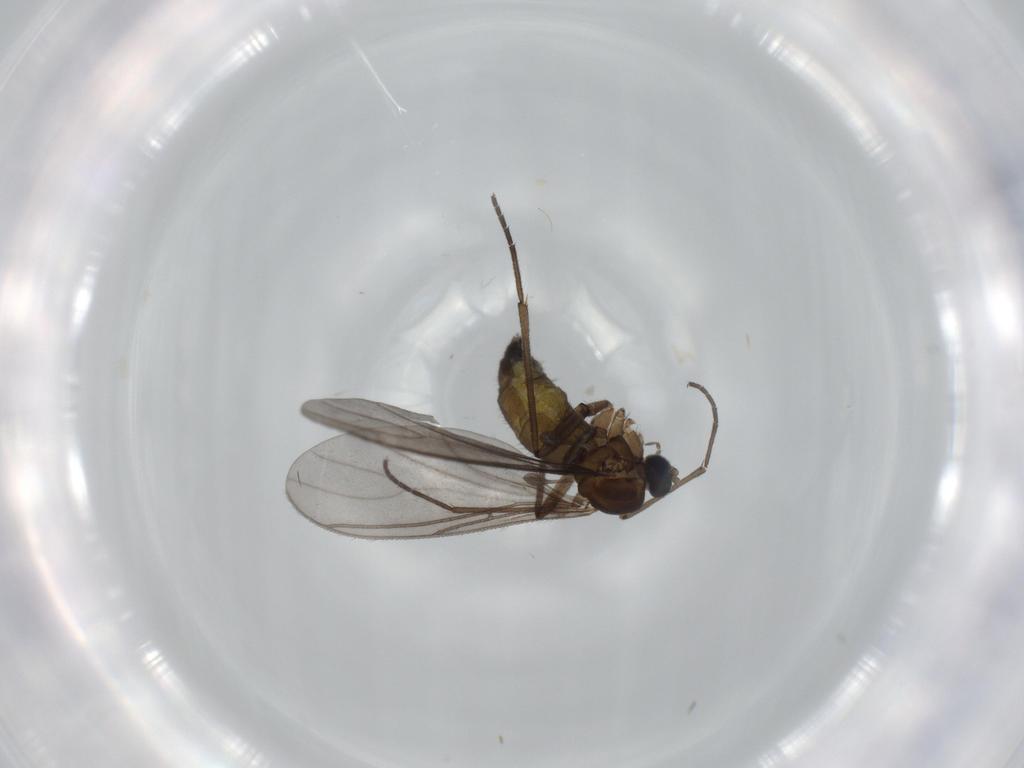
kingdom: Animalia
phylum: Arthropoda
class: Insecta
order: Diptera
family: Sciaridae
